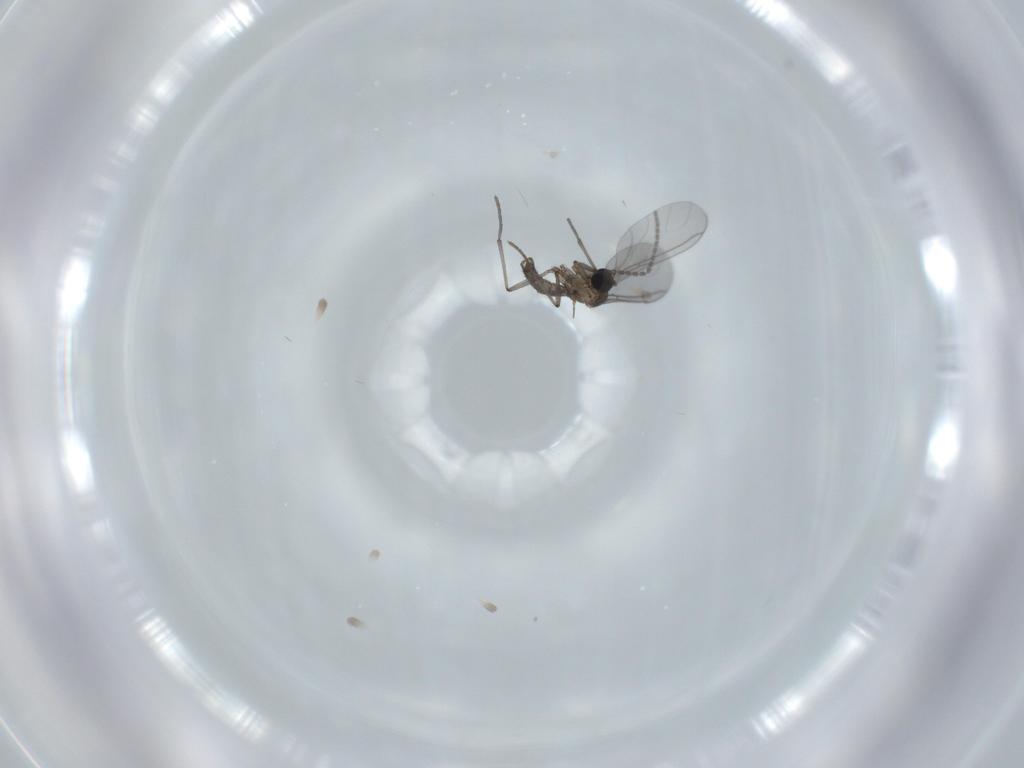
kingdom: Animalia
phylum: Arthropoda
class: Insecta
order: Diptera
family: Sciaridae
